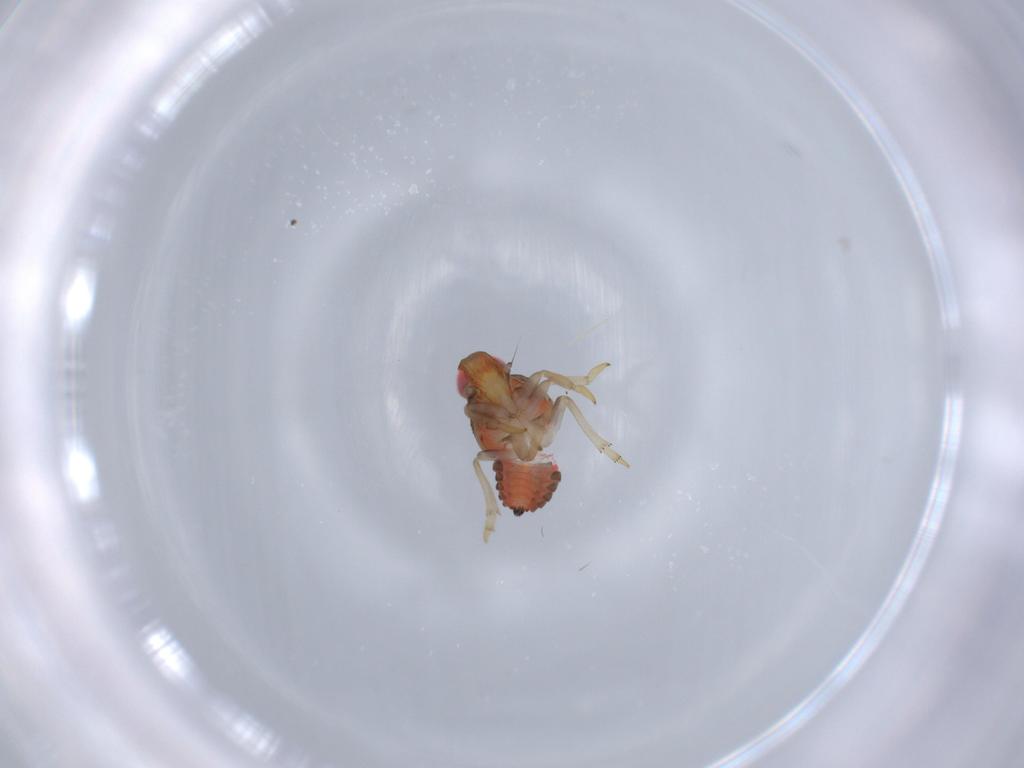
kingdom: Animalia
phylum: Arthropoda
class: Insecta
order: Hemiptera
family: Issidae
